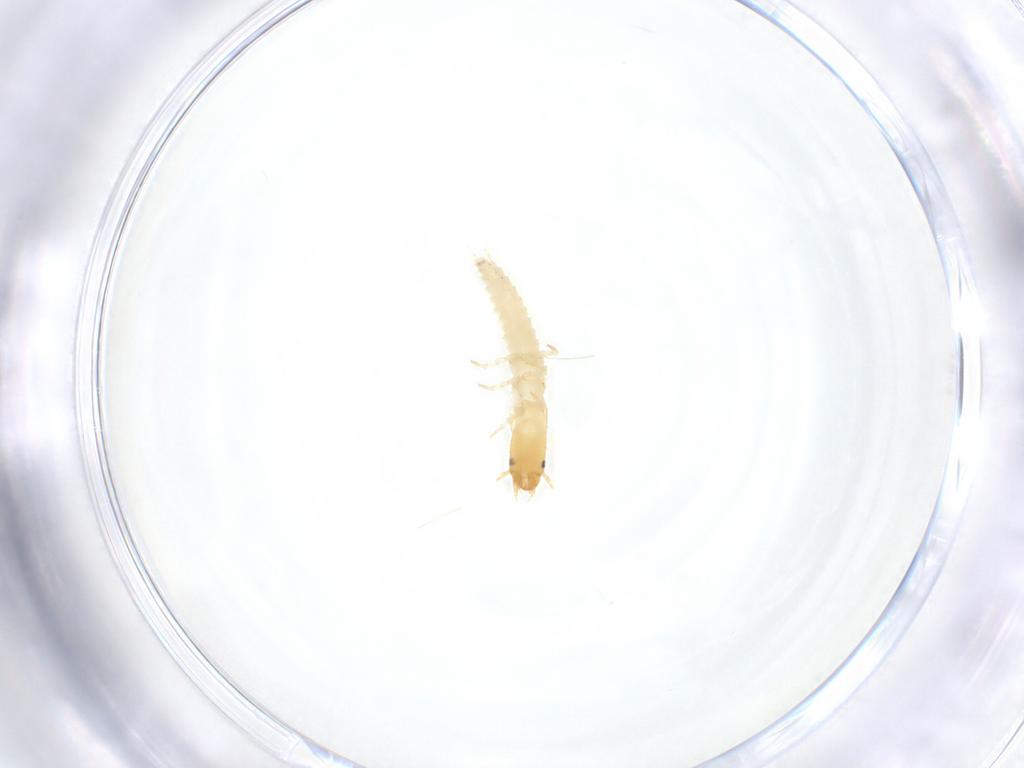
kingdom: Animalia
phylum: Arthropoda
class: Insecta
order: Coleoptera
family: Carabidae
